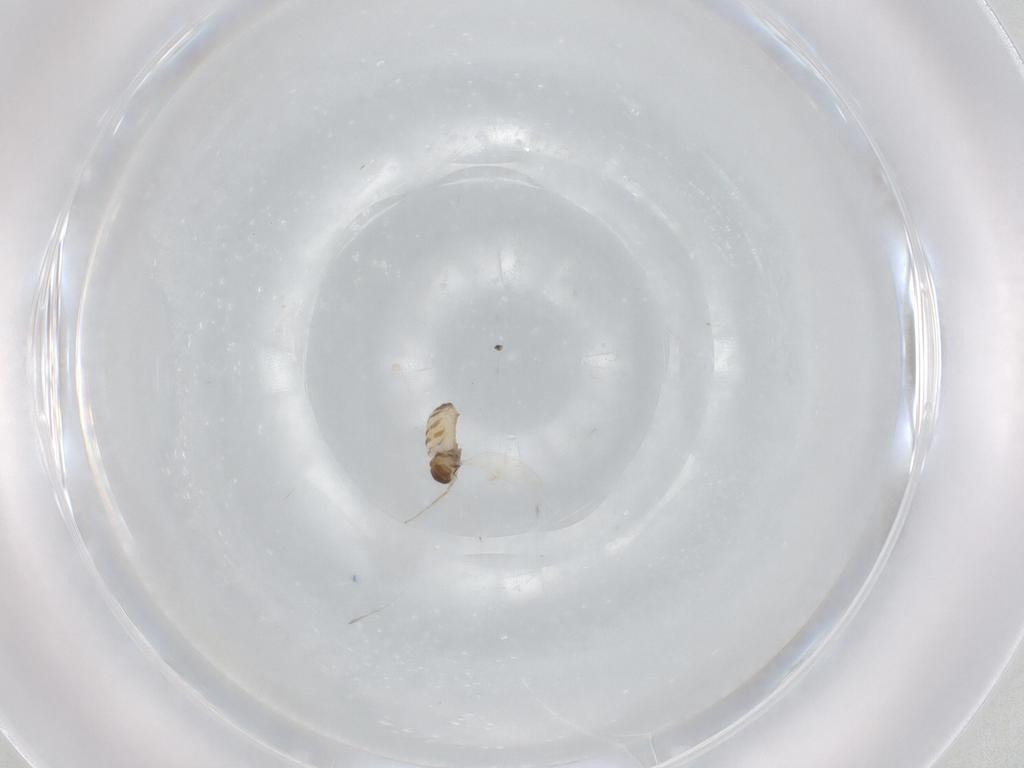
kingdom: Animalia
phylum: Arthropoda
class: Insecta
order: Diptera
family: Cecidomyiidae
